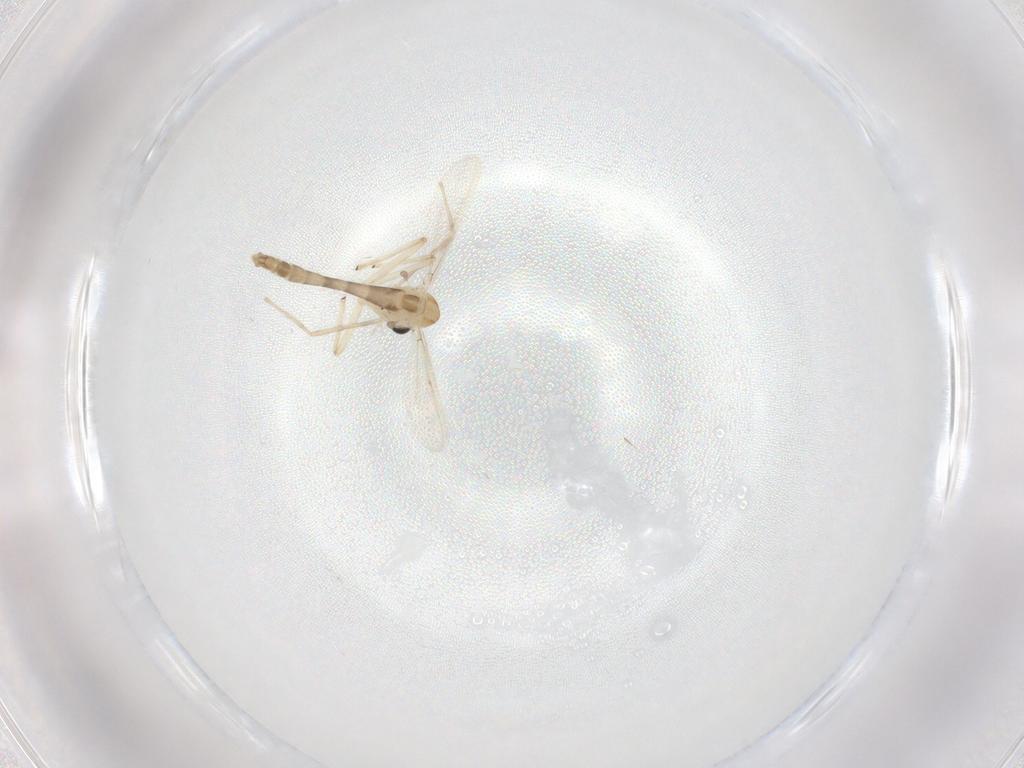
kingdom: Animalia
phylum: Arthropoda
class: Insecta
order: Diptera
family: Chironomidae
